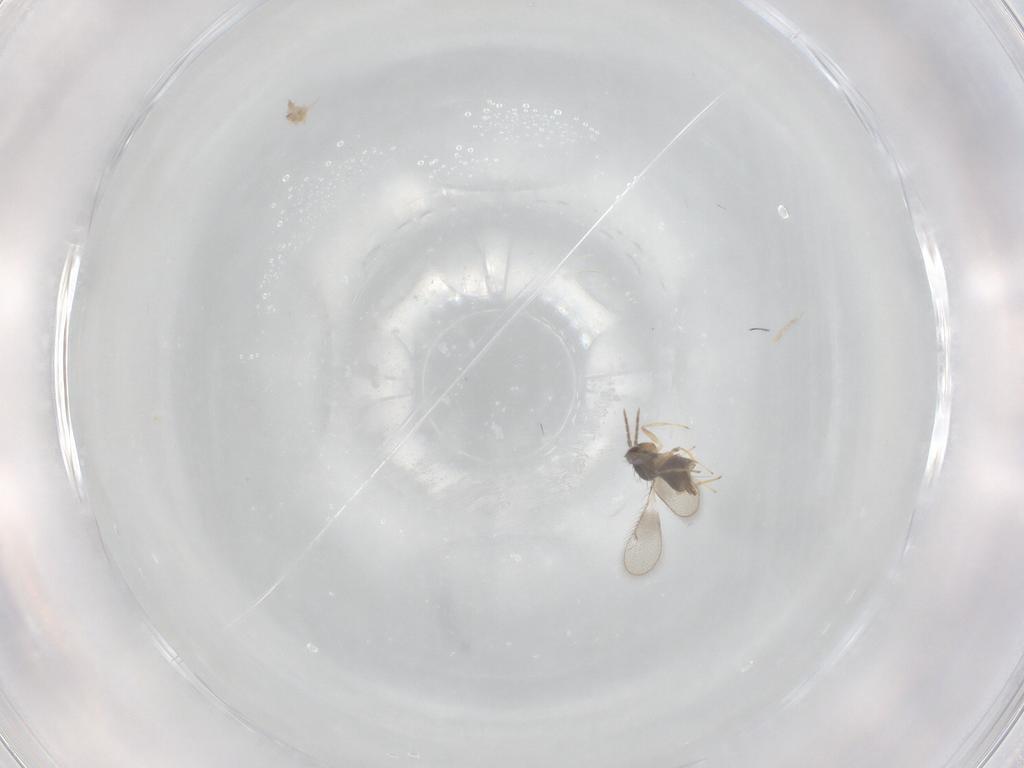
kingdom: Animalia
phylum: Arthropoda
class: Insecta
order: Hymenoptera
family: Eulophidae
